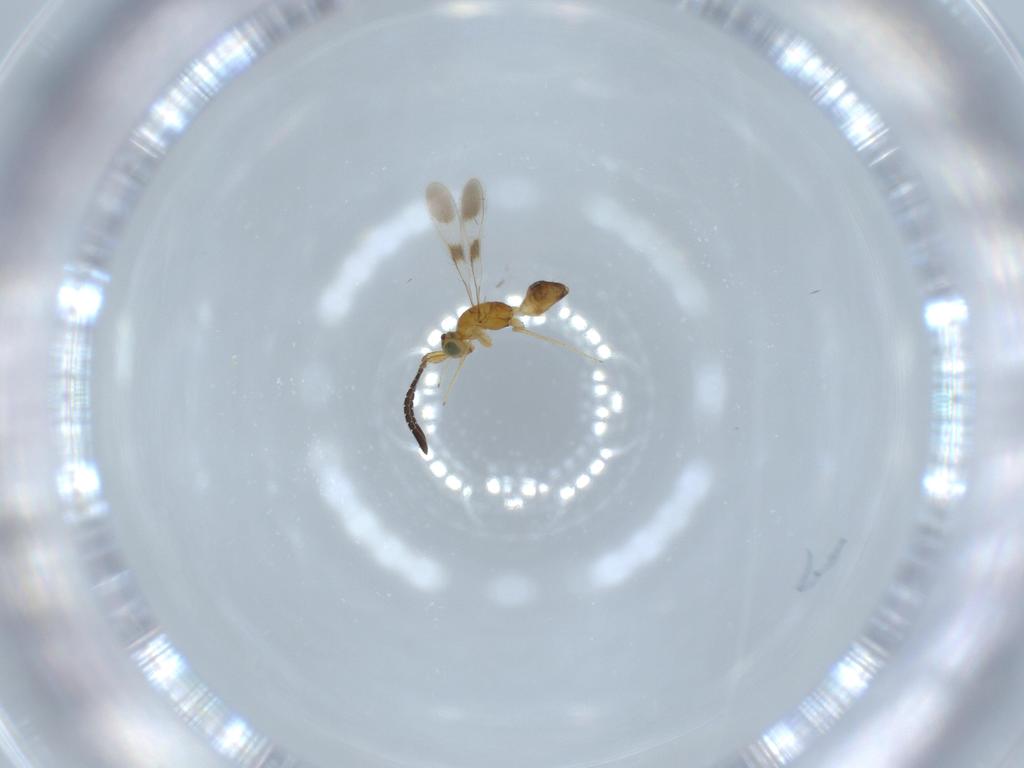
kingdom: Animalia
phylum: Arthropoda
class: Insecta
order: Hymenoptera
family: Mymaridae
